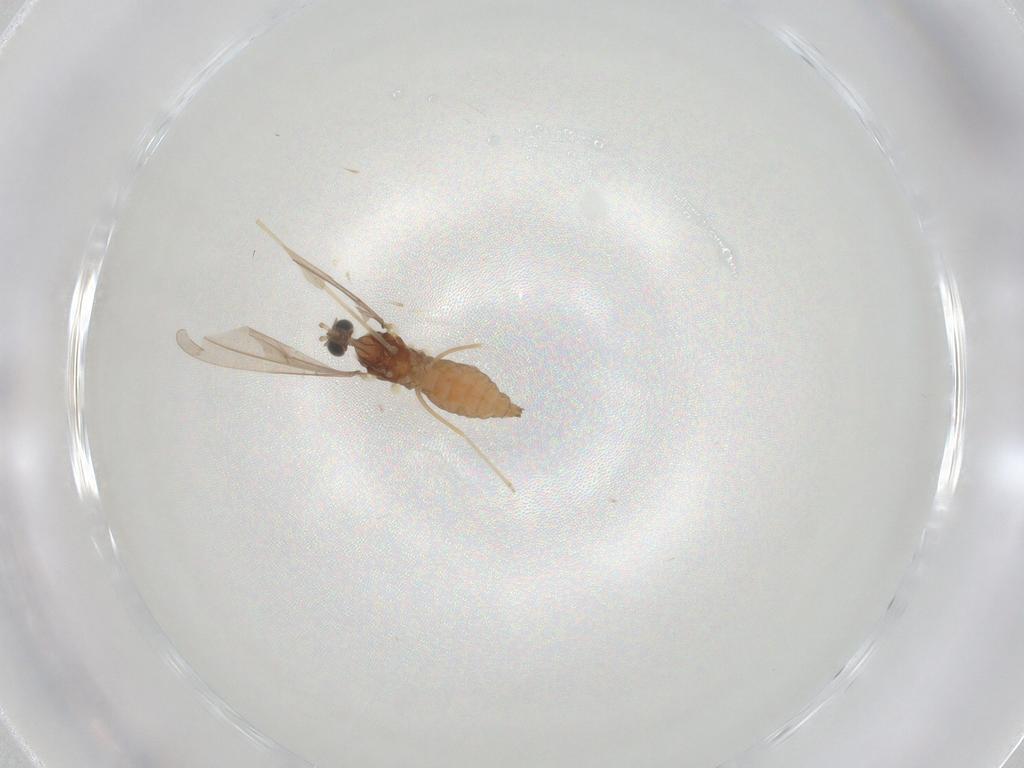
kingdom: Animalia
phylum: Arthropoda
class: Insecta
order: Diptera
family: Cecidomyiidae
